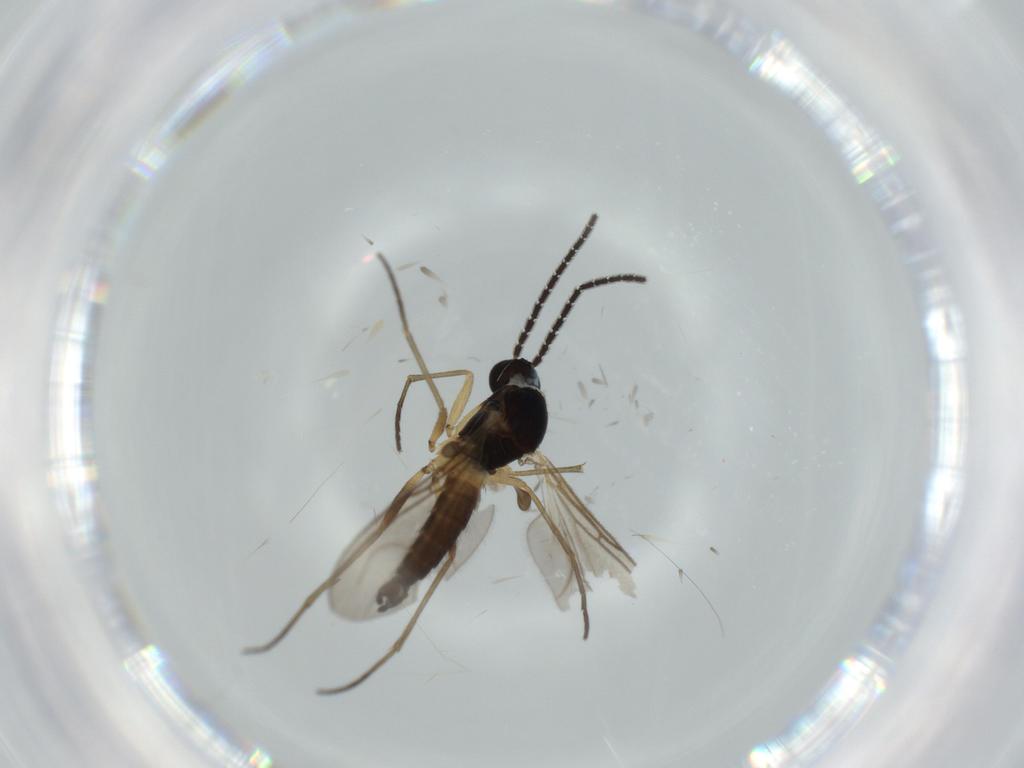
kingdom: Animalia
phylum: Arthropoda
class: Insecta
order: Diptera
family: Sciaridae
